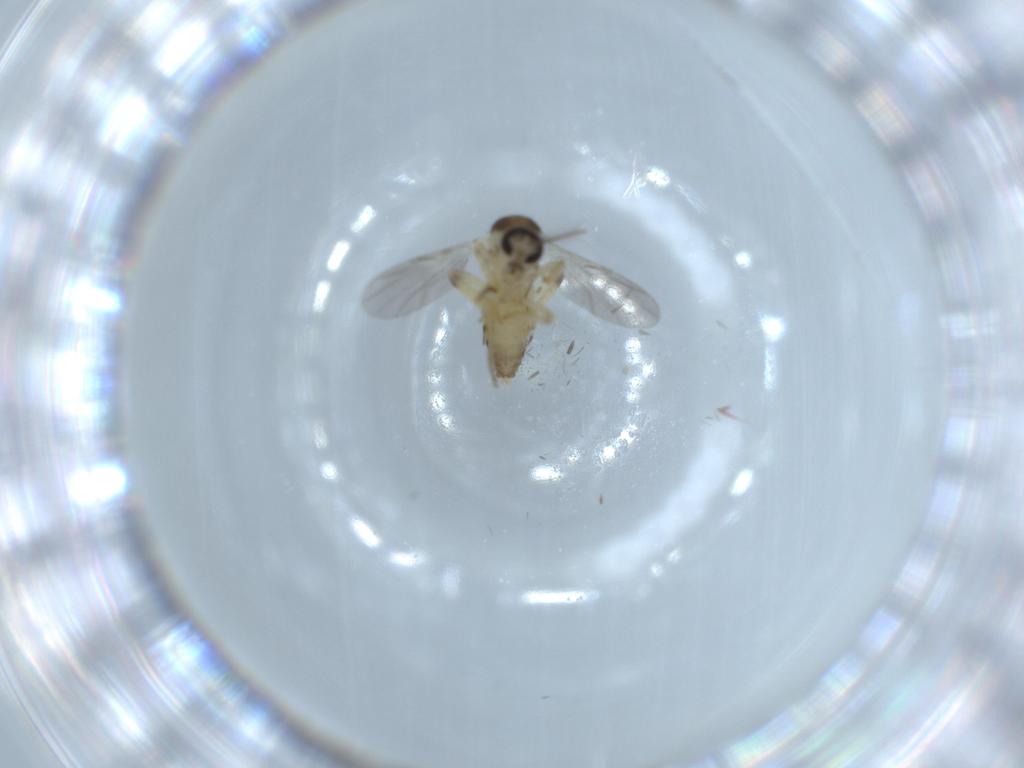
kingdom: Animalia
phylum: Arthropoda
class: Insecta
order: Diptera
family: Ceratopogonidae
